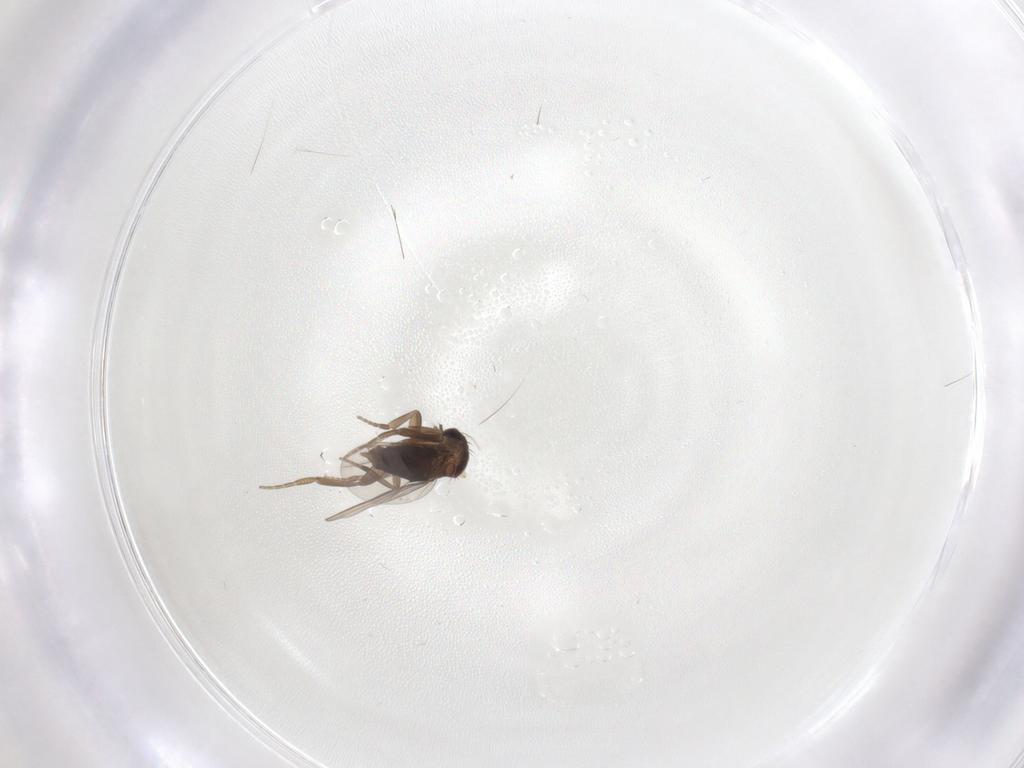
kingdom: Animalia
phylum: Arthropoda
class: Insecta
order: Diptera
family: Phoridae
